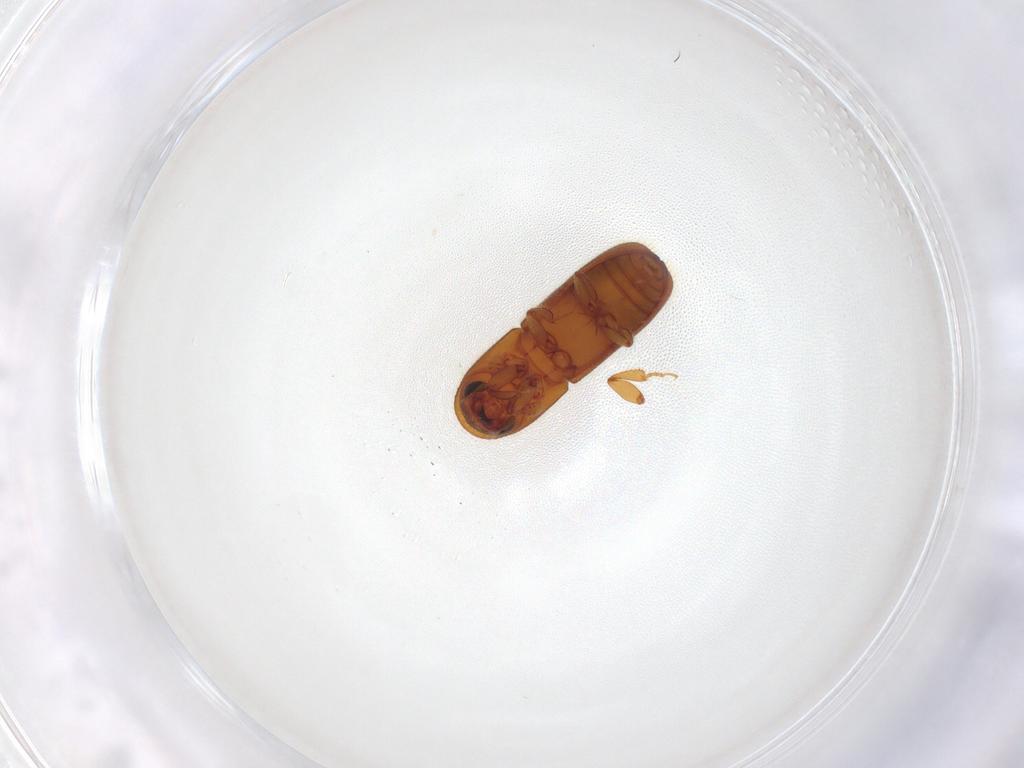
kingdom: Animalia
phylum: Arthropoda
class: Insecta
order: Coleoptera
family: Curculionidae
